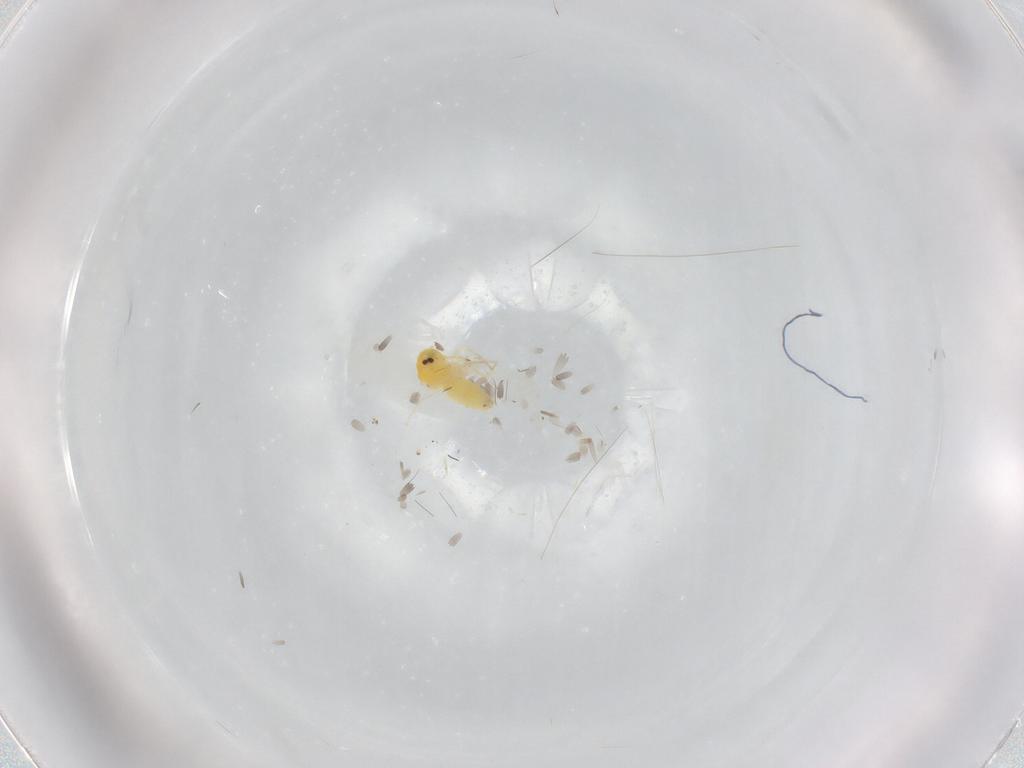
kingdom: Animalia
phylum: Arthropoda
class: Insecta
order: Hemiptera
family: Aleyrodidae
